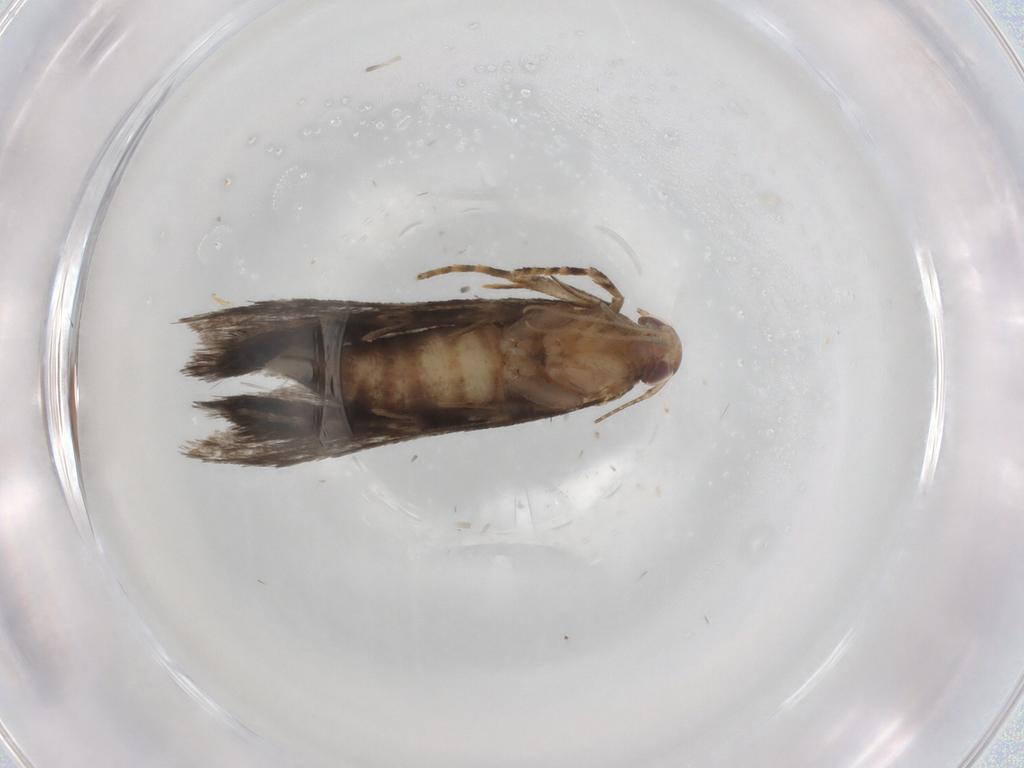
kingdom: Animalia
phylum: Arthropoda
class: Insecta
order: Lepidoptera
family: Crambidae
